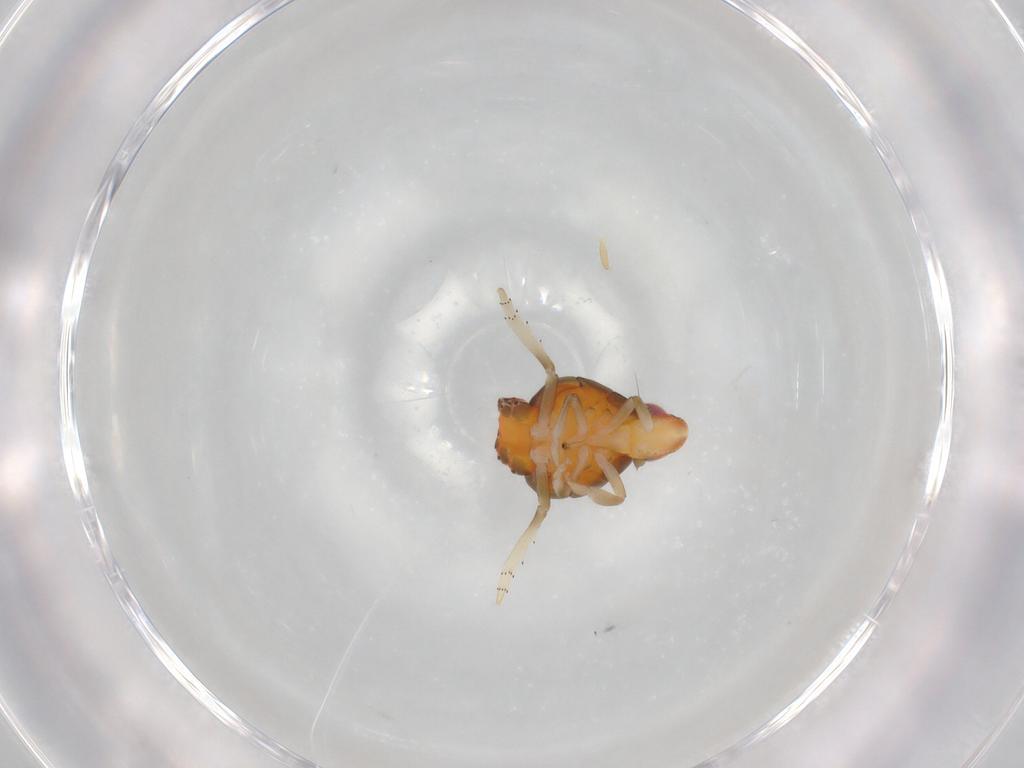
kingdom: Animalia
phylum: Arthropoda
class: Insecta
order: Hemiptera
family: Fulgoroidea_incertae_sedis
